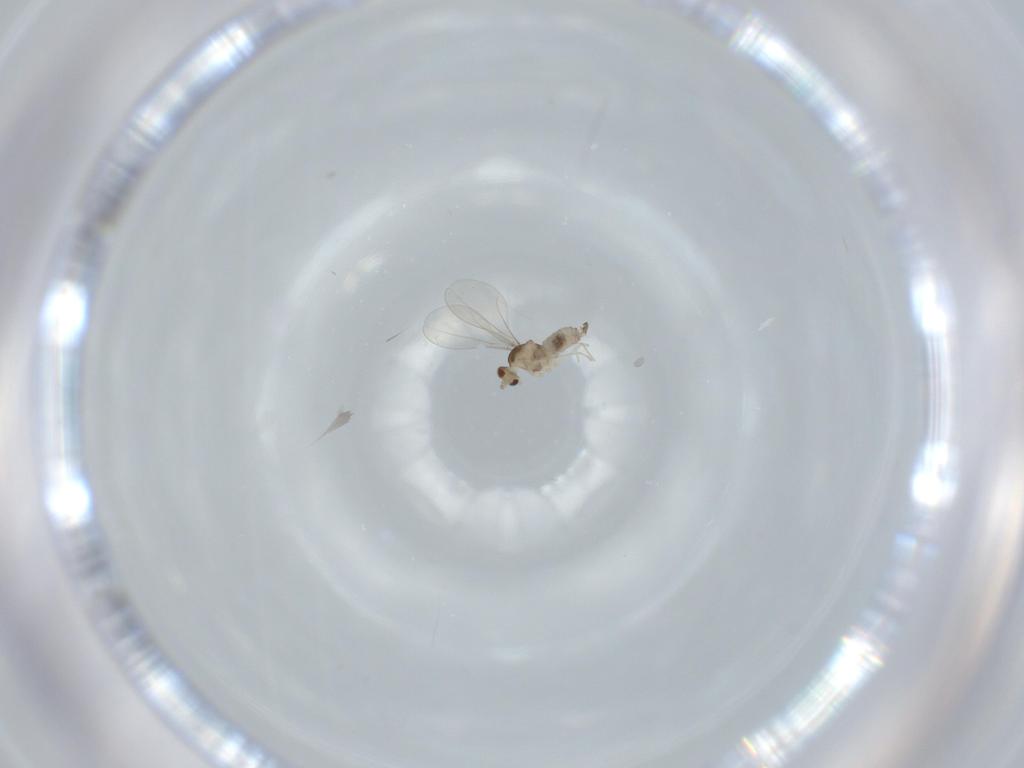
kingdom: Animalia
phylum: Arthropoda
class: Insecta
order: Diptera
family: Cecidomyiidae
